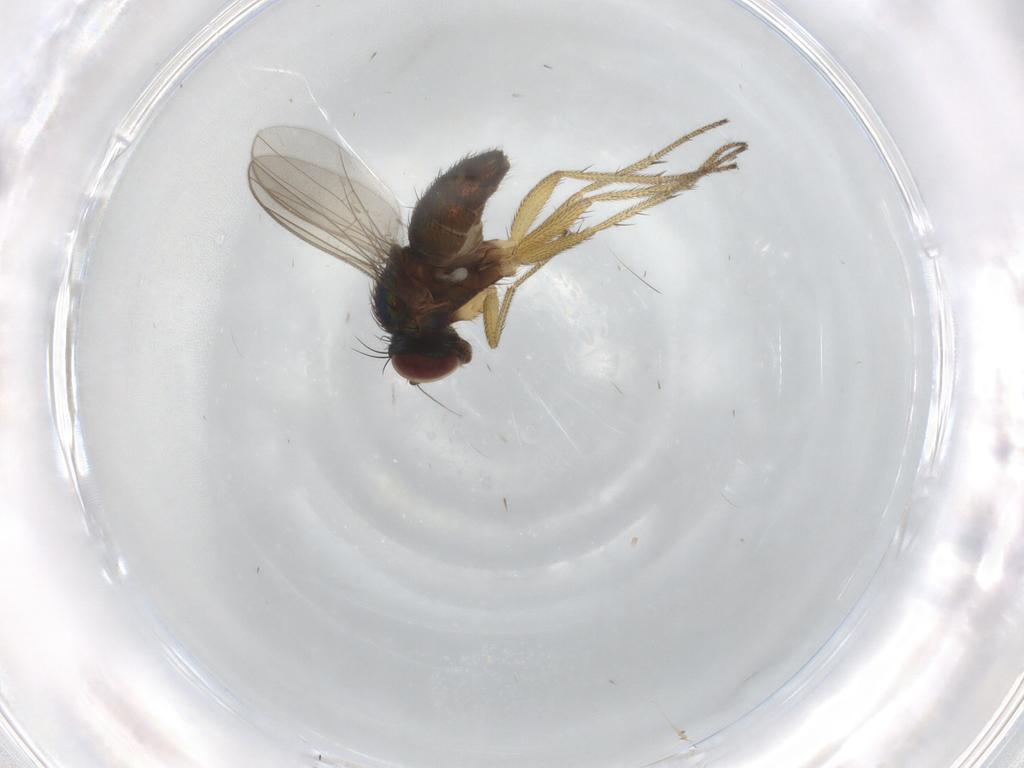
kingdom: Animalia
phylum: Arthropoda
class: Insecta
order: Diptera
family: Dolichopodidae
